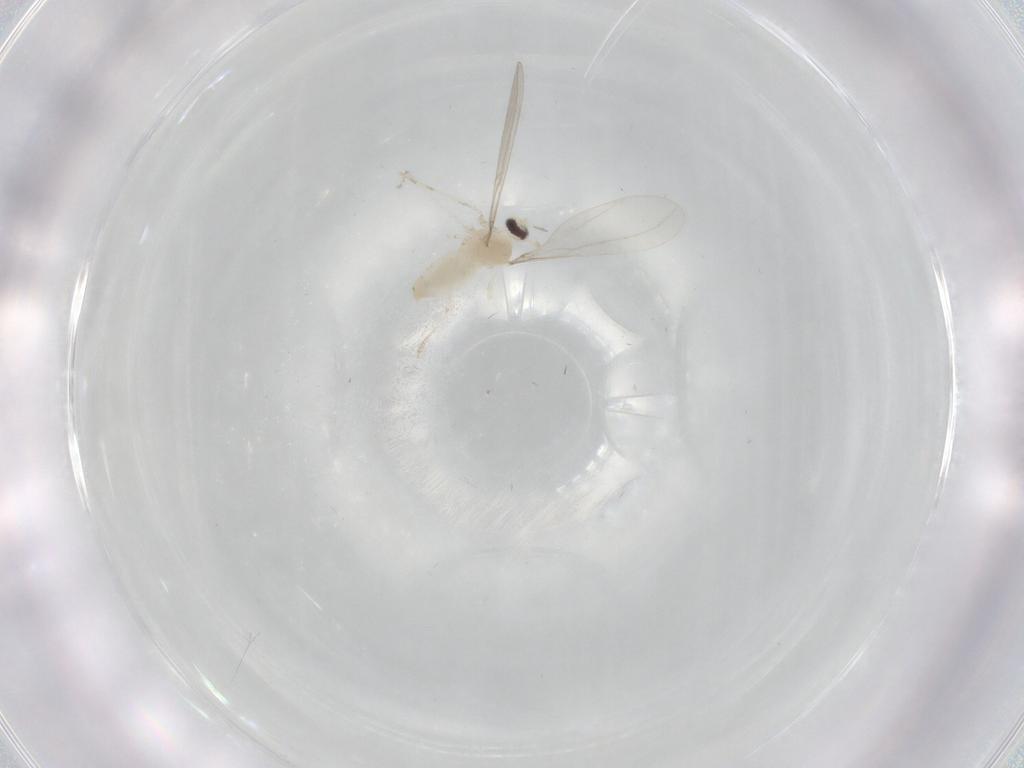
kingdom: Animalia
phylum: Arthropoda
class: Insecta
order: Diptera
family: Cecidomyiidae
